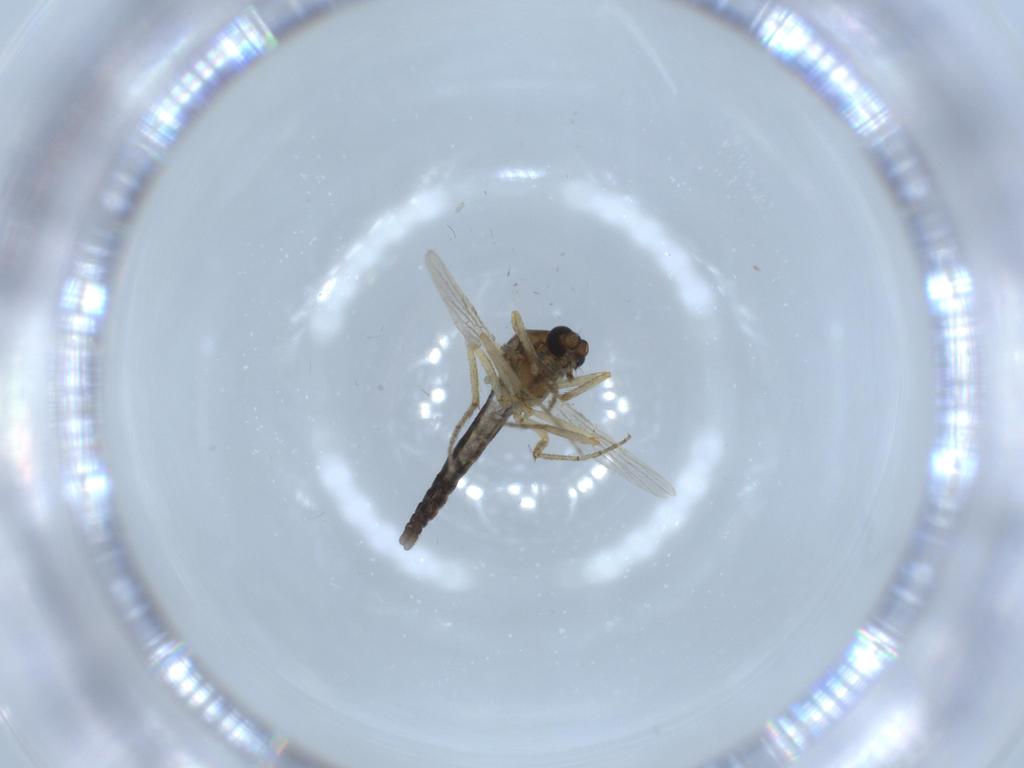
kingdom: Animalia
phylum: Arthropoda
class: Insecta
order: Diptera
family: Ceratopogonidae
